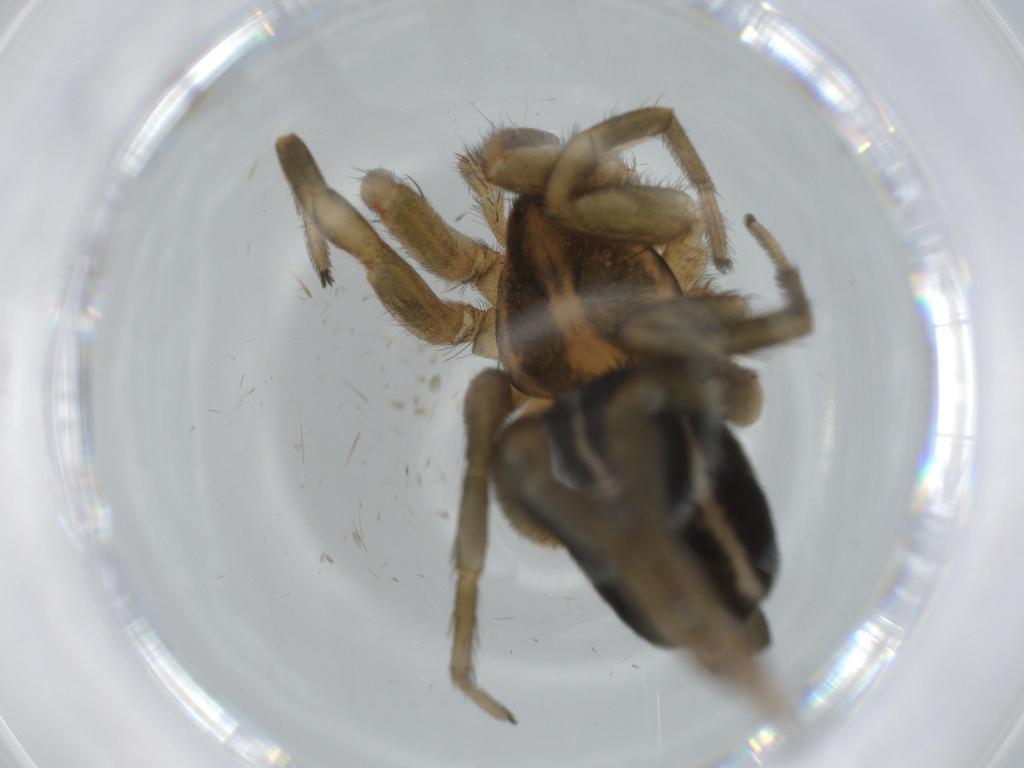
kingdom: Animalia
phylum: Arthropoda
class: Arachnida
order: Araneae
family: Gnaphosidae
